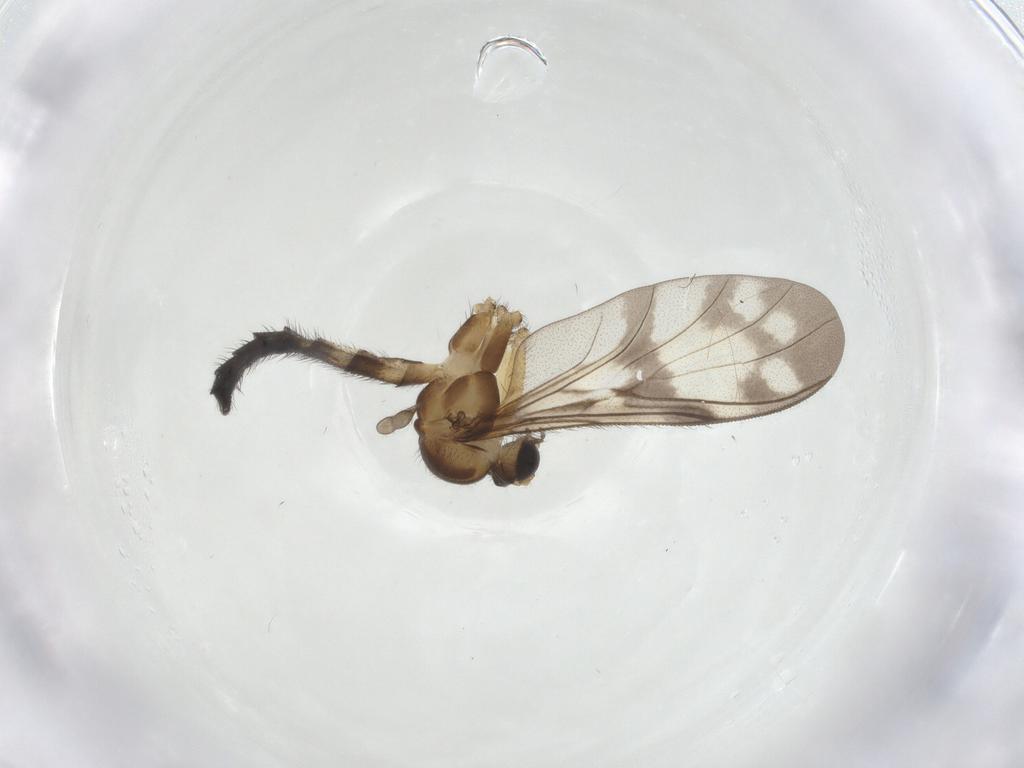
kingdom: Animalia
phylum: Arthropoda
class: Insecta
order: Diptera
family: Keroplatidae
